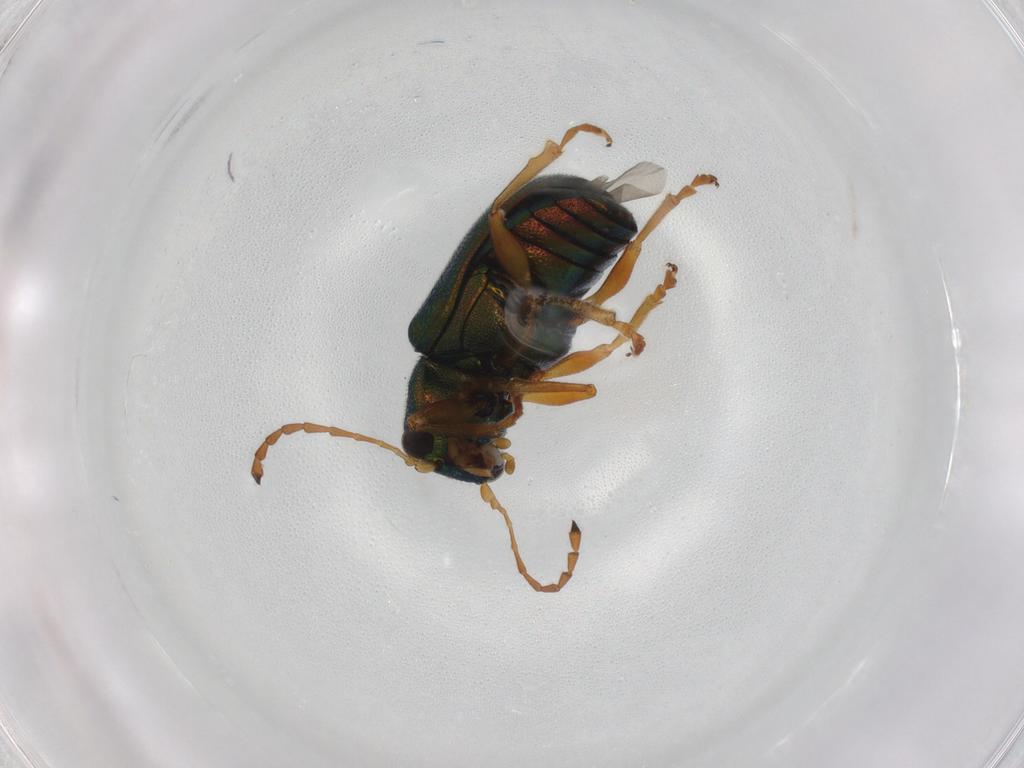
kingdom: Animalia
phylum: Arthropoda
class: Insecta
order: Coleoptera
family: Chrysomelidae
